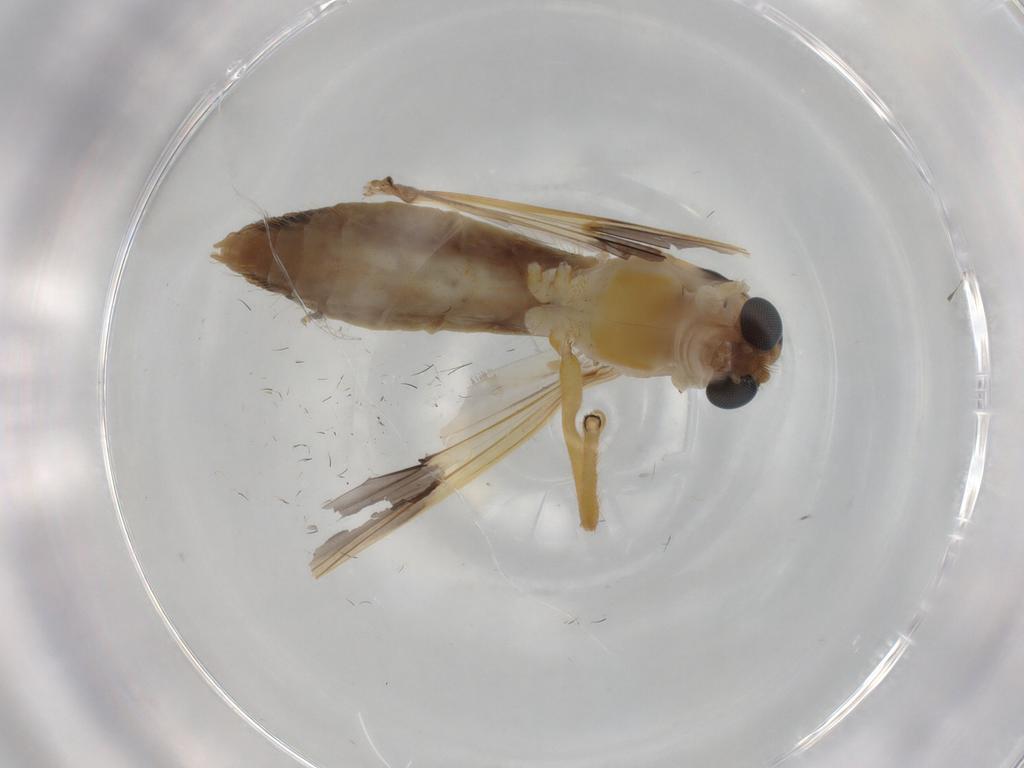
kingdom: Animalia
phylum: Arthropoda
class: Insecta
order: Diptera
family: Chironomidae
